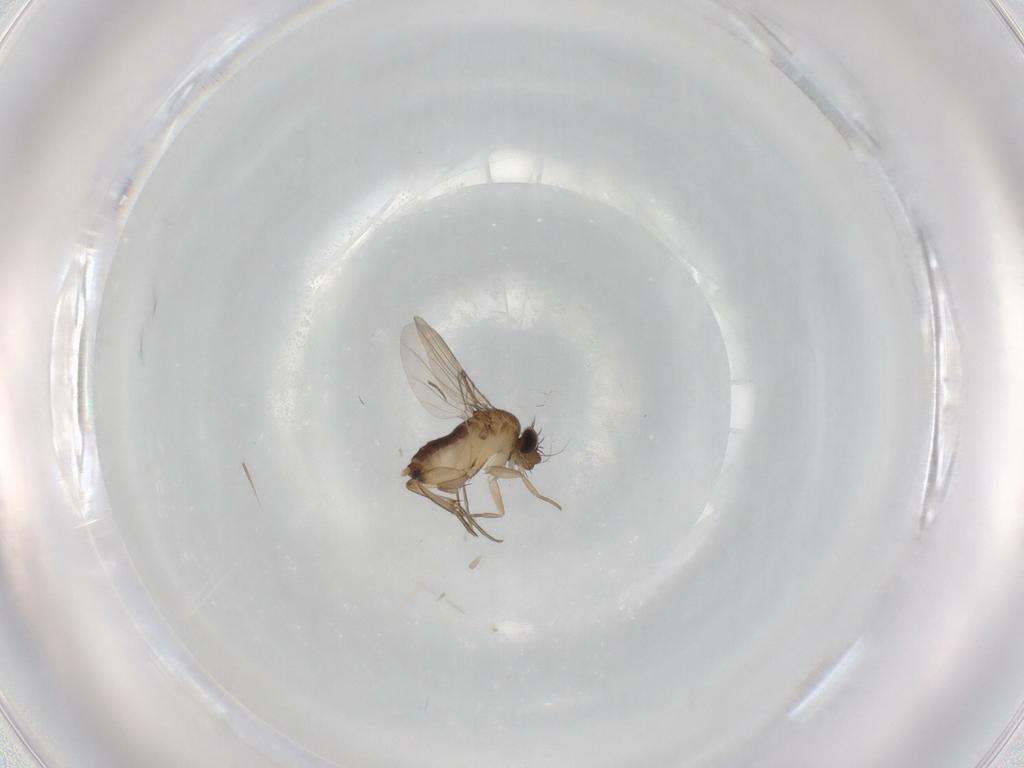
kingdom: Animalia
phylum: Arthropoda
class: Insecta
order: Diptera
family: Phoridae
